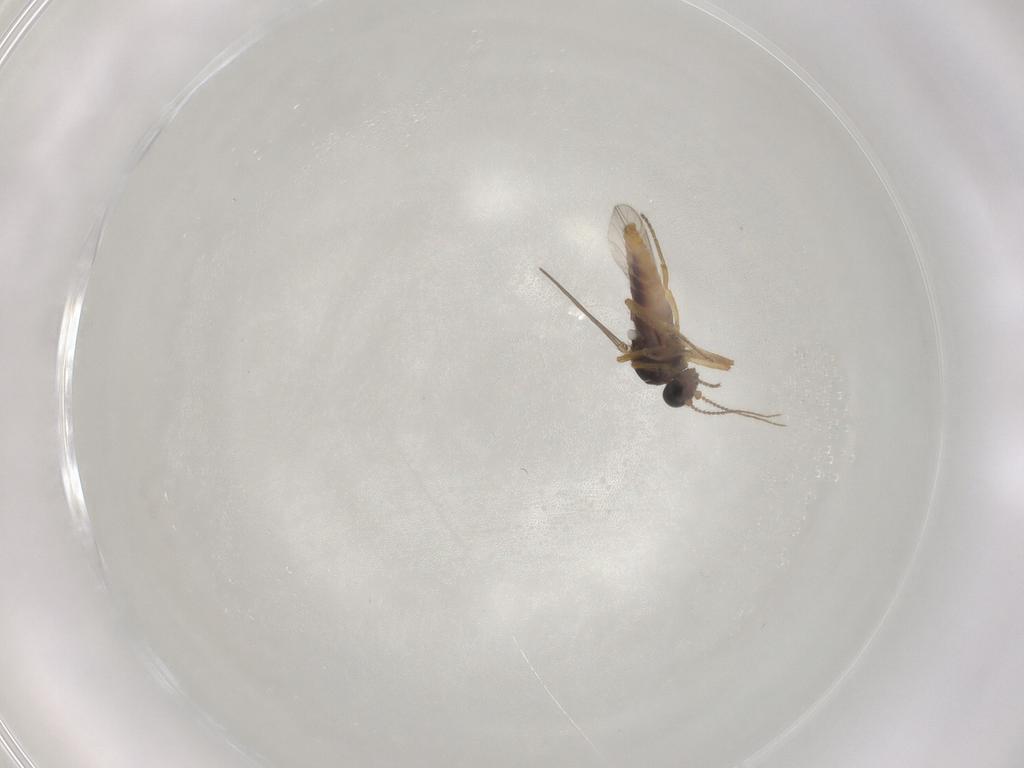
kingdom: Animalia
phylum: Arthropoda
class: Insecta
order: Diptera
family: Ceratopogonidae
